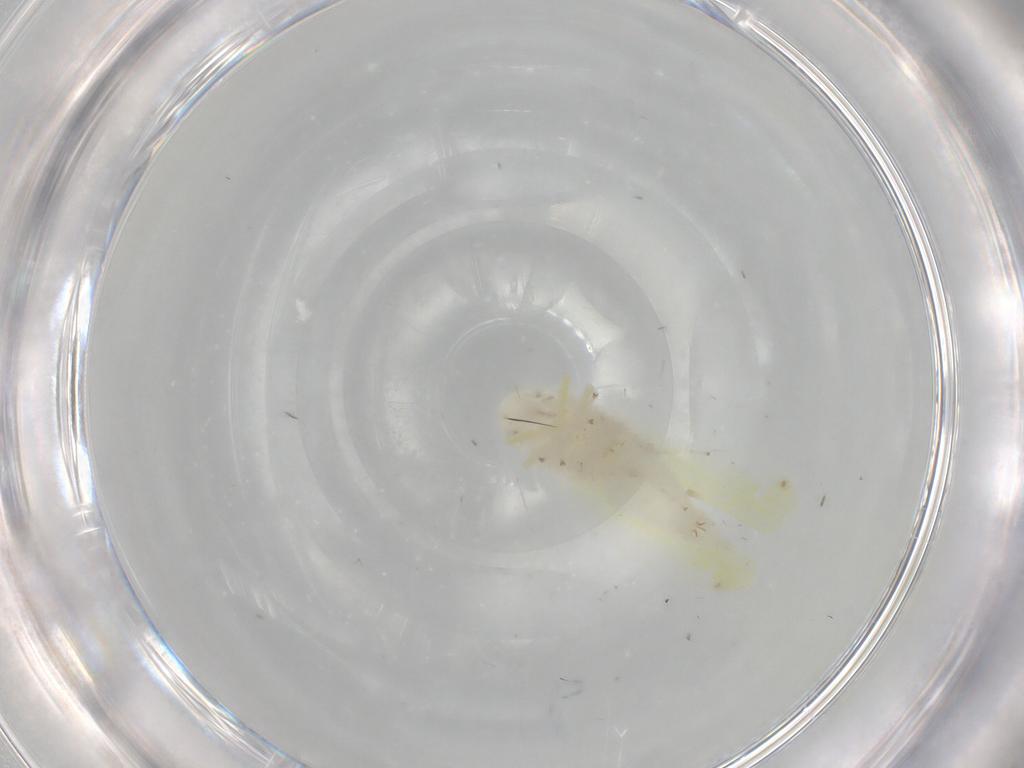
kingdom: Animalia
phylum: Arthropoda
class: Insecta
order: Hemiptera
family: Cicadellidae
